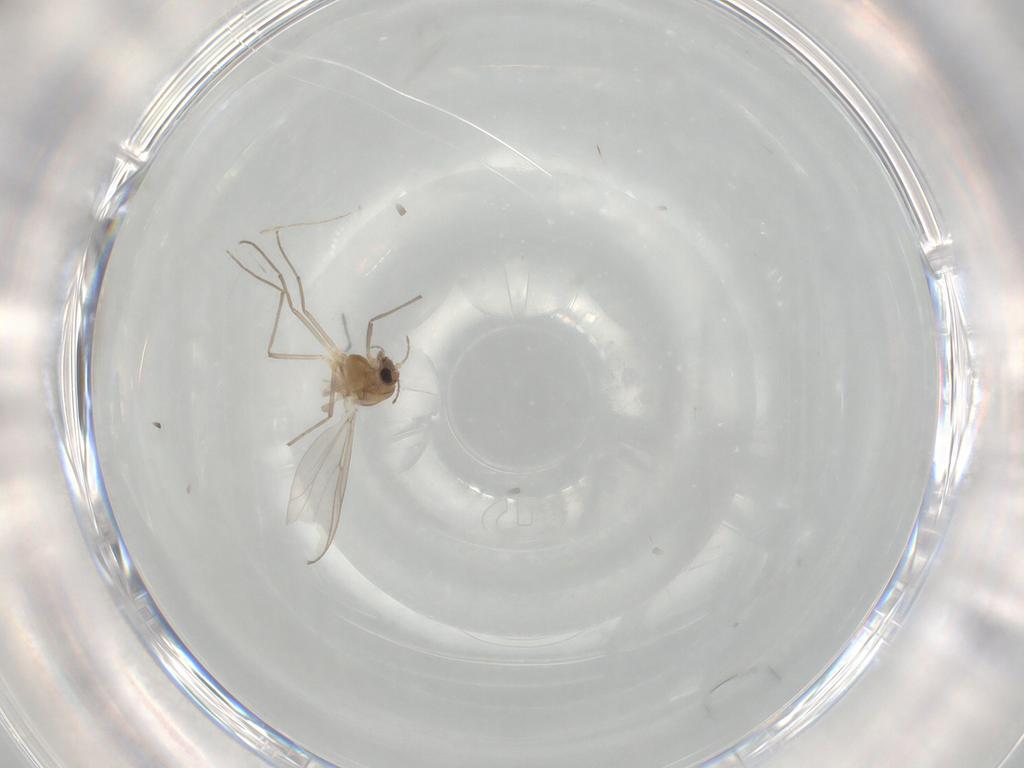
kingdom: Animalia
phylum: Arthropoda
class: Insecta
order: Diptera
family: Chironomidae
